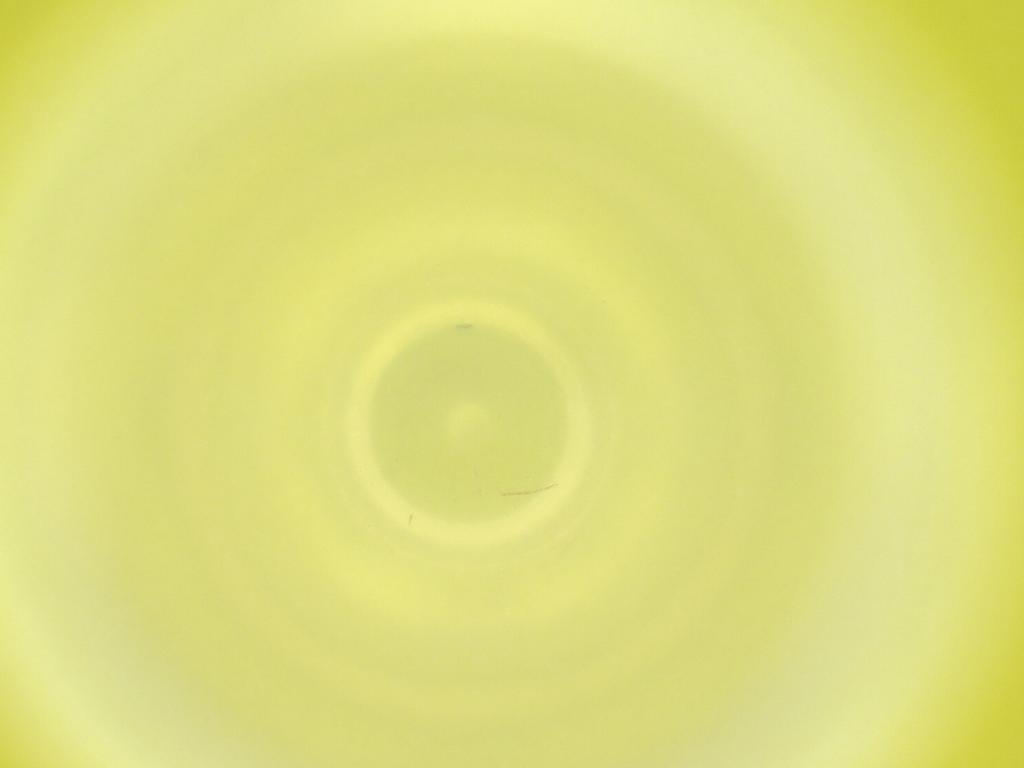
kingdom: Animalia
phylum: Arthropoda
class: Insecta
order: Diptera
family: Cecidomyiidae
